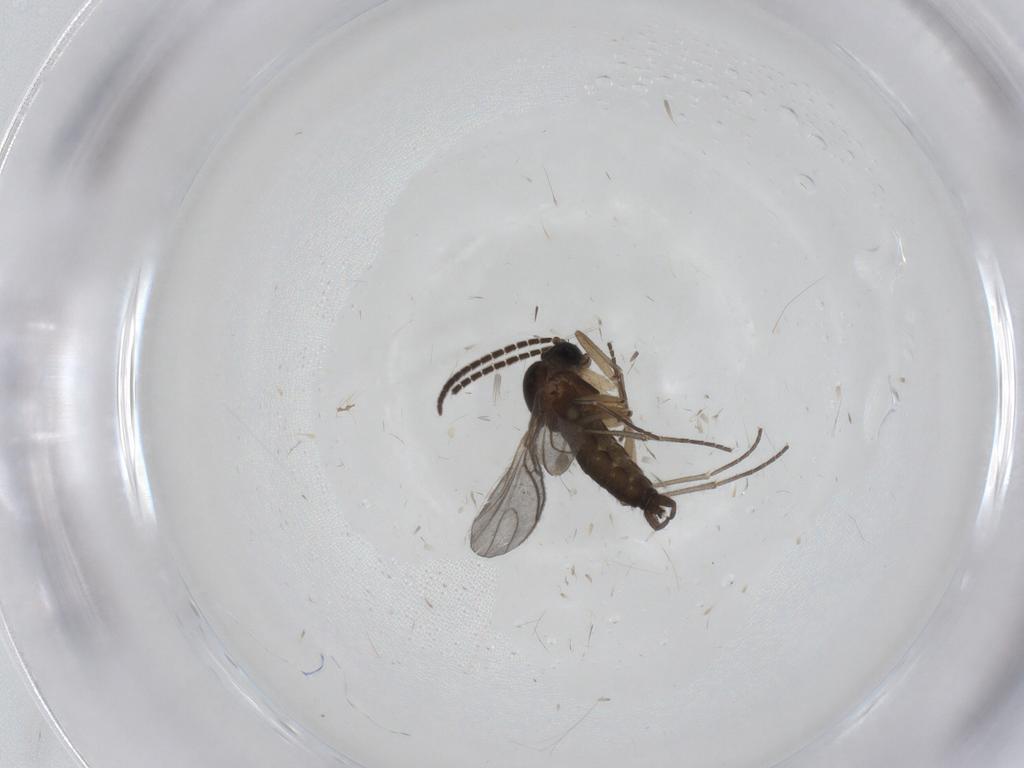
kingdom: Animalia
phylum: Arthropoda
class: Insecta
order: Diptera
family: Sciaridae
